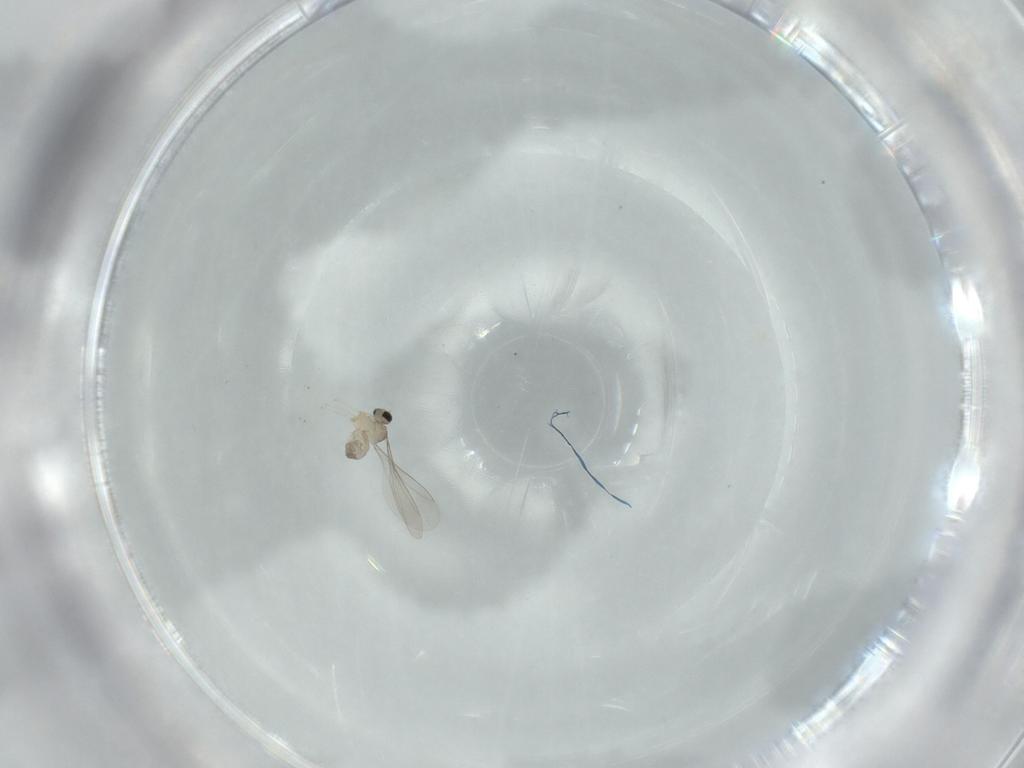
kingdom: Animalia
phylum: Arthropoda
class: Insecta
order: Diptera
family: Cecidomyiidae
